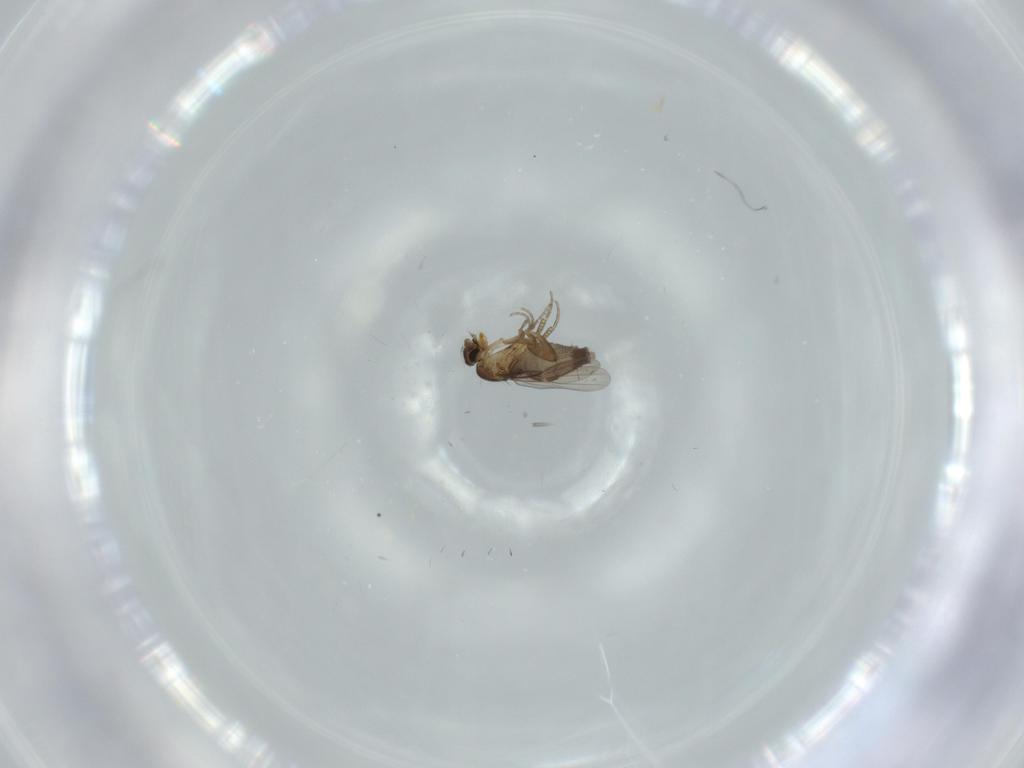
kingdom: Animalia
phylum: Arthropoda
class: Insecta
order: Diptera
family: Phoridae
